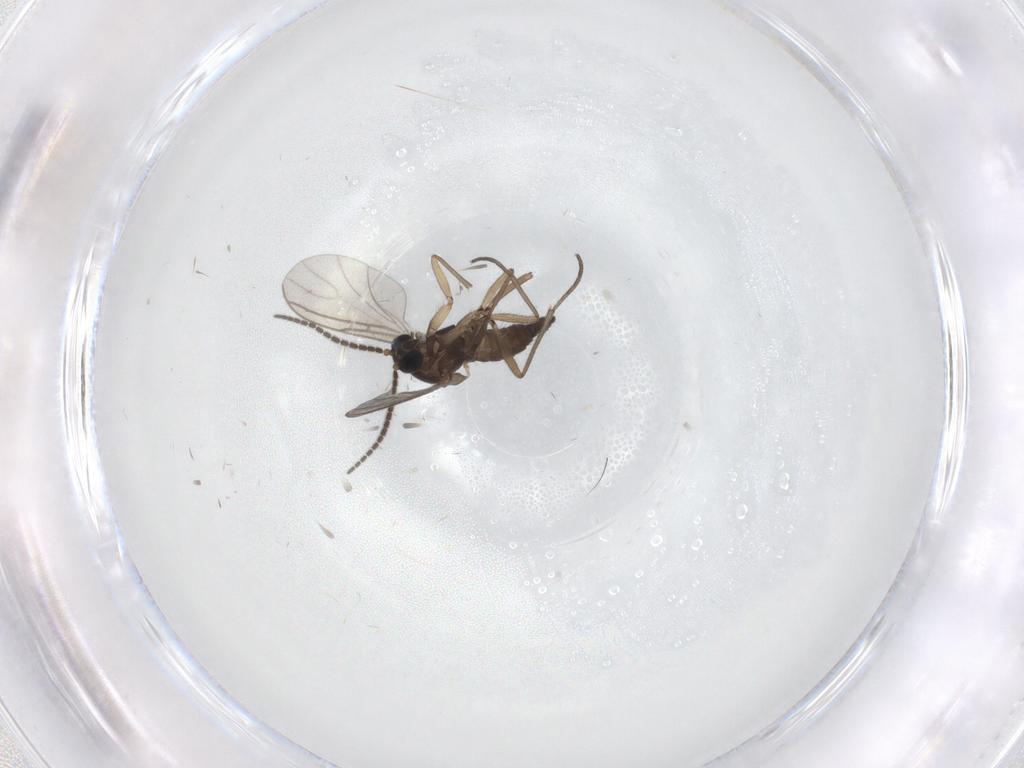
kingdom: Animalia
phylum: Arthropoda
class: Insecta
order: Diptera
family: Sciaridae
